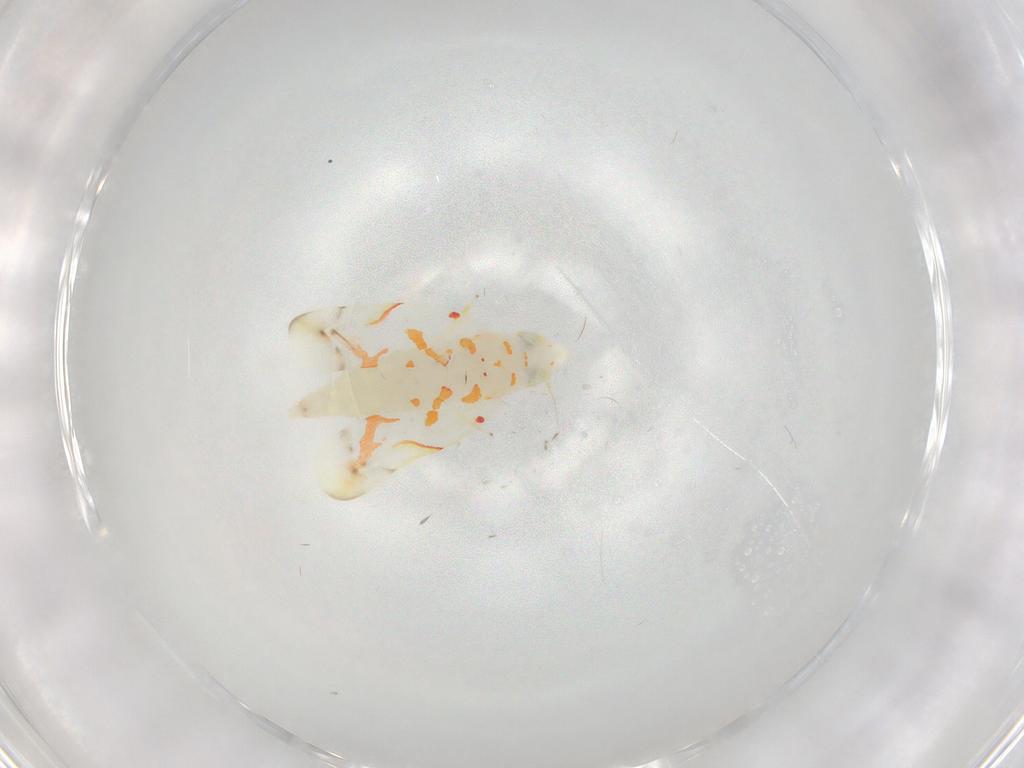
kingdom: Animalia
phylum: Arthropoda
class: Insecta
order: Hemiptera
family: Cicadellidae
